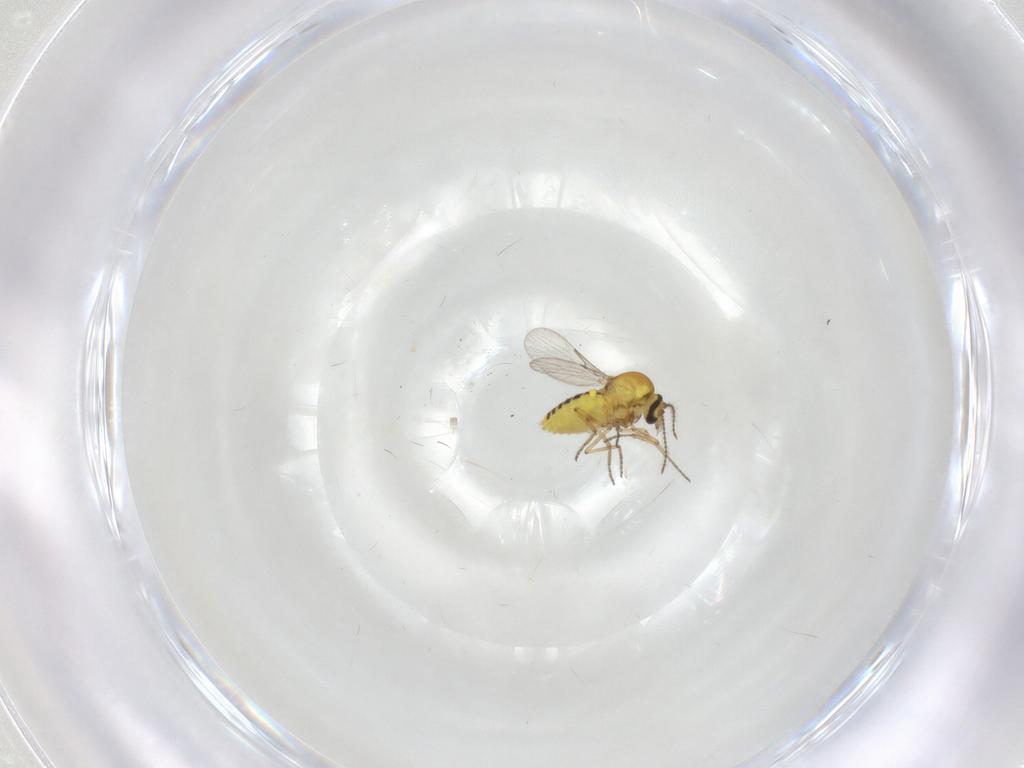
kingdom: Animalia
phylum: Arthropoda
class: Insecta
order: Diptera
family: Ceratopogonidae
